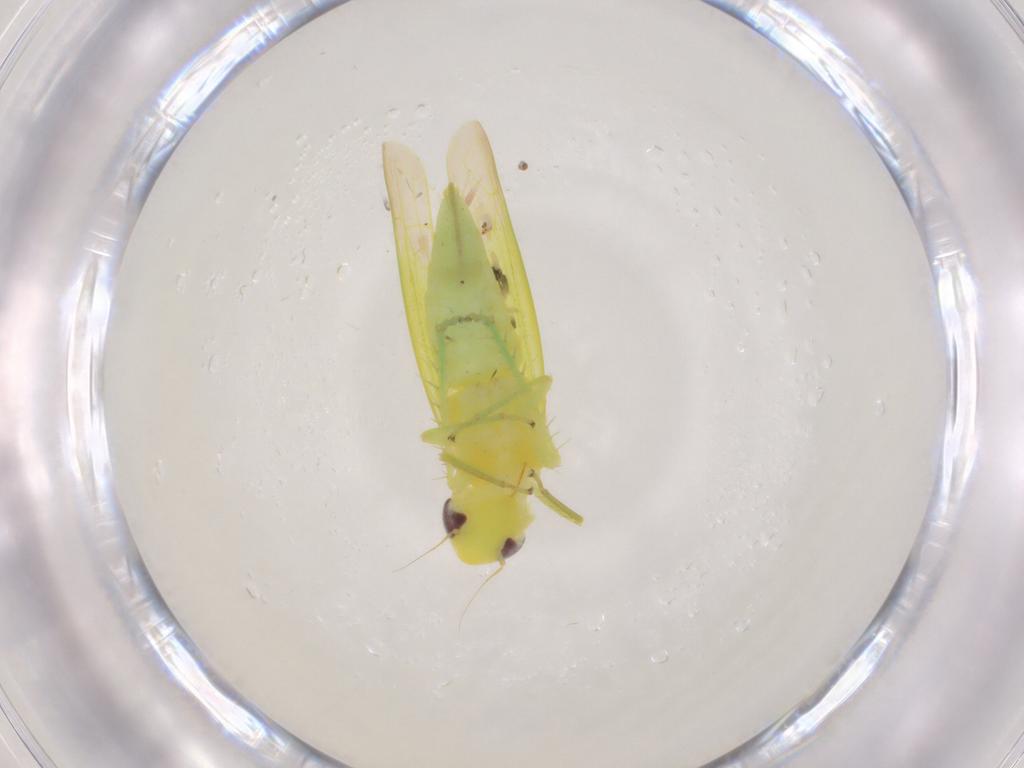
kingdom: Animalia
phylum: Arthropoda
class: Insecta
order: Hemiptera
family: Cicadellidae
